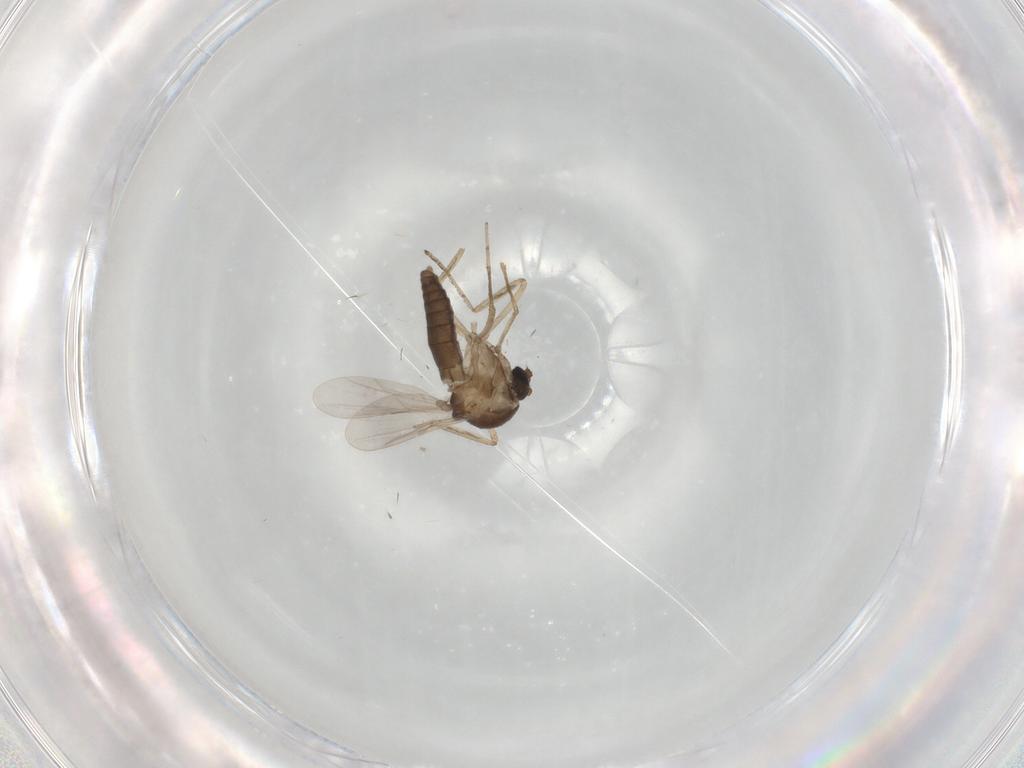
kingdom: Animalia
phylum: Arthropoda
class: Insecta
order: Diptera
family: Ceratopogonidae
